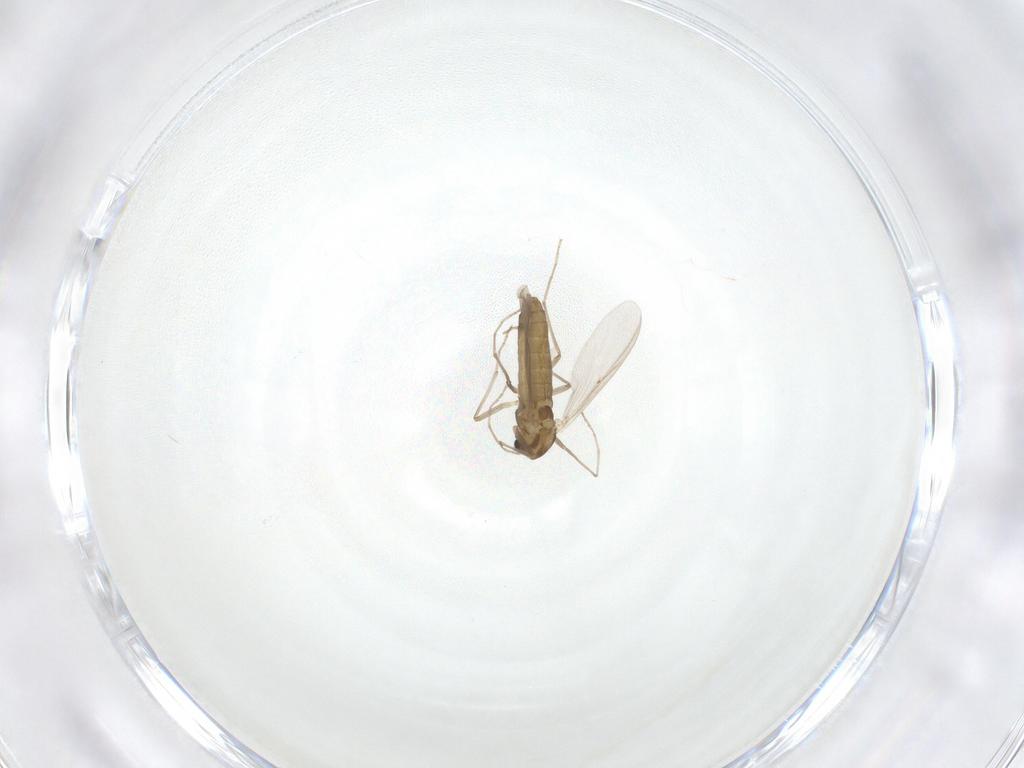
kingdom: Animalia
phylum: Arthropoda
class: Insecta
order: Diptera
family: Chironomidae
